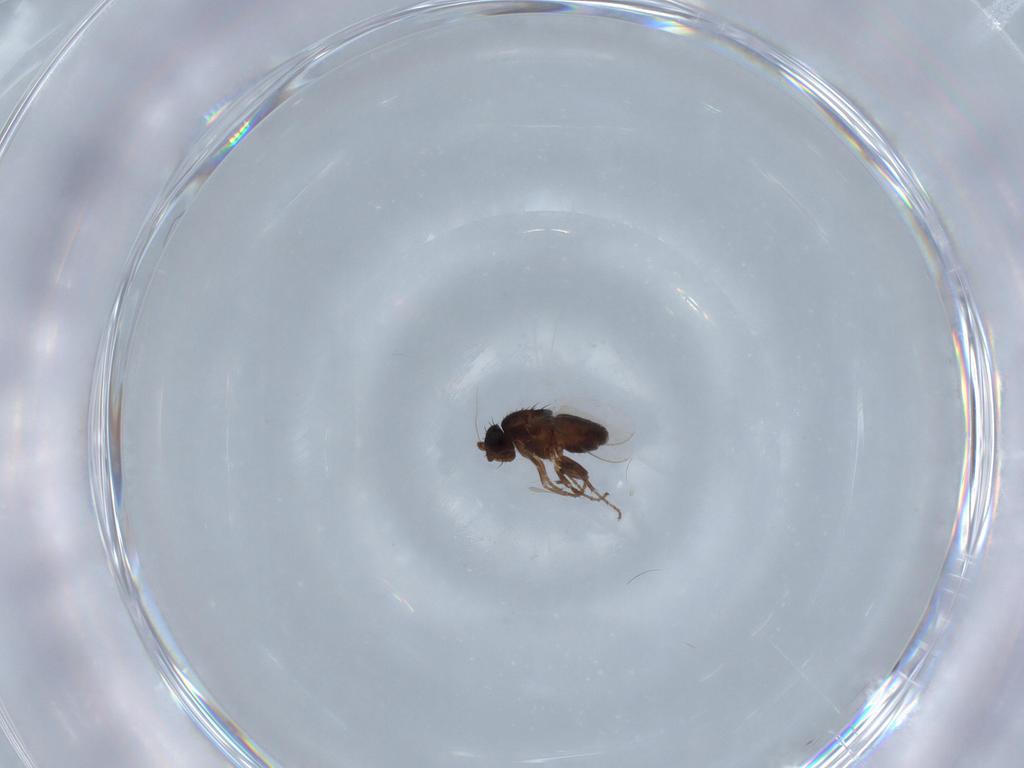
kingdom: Animalia
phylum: Arthropoda
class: Insecta
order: Diptera
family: Sphaeroceridae
